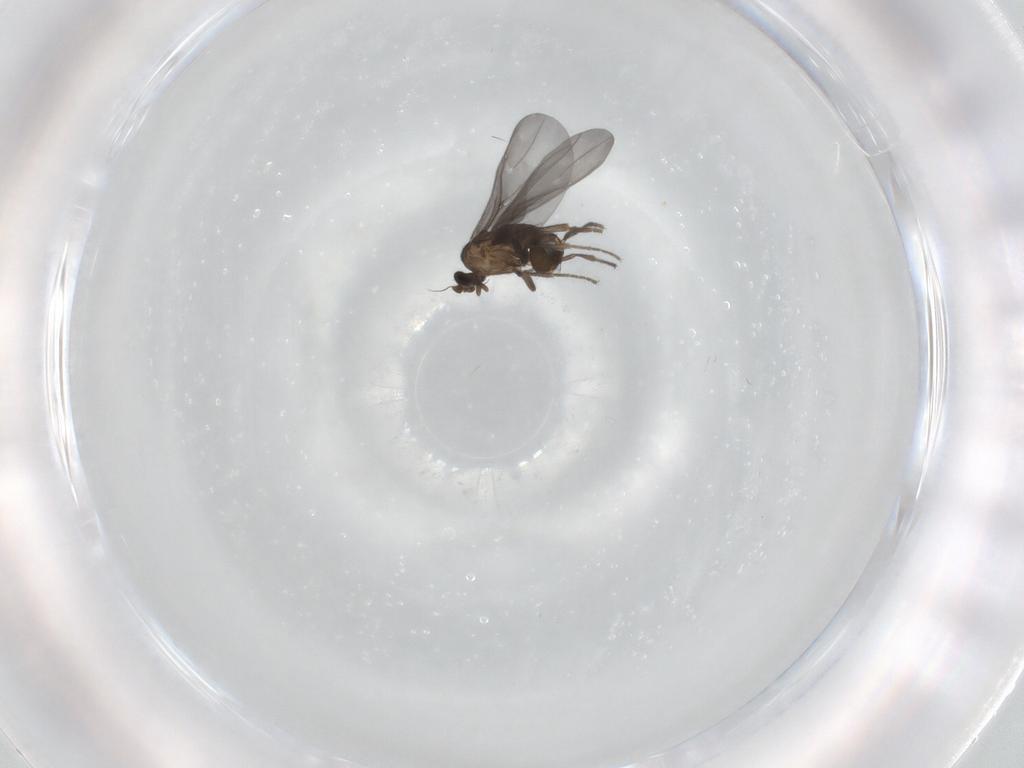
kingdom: Animalia
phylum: Arthropoda
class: Insecta
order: Diptera
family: Phoridae
